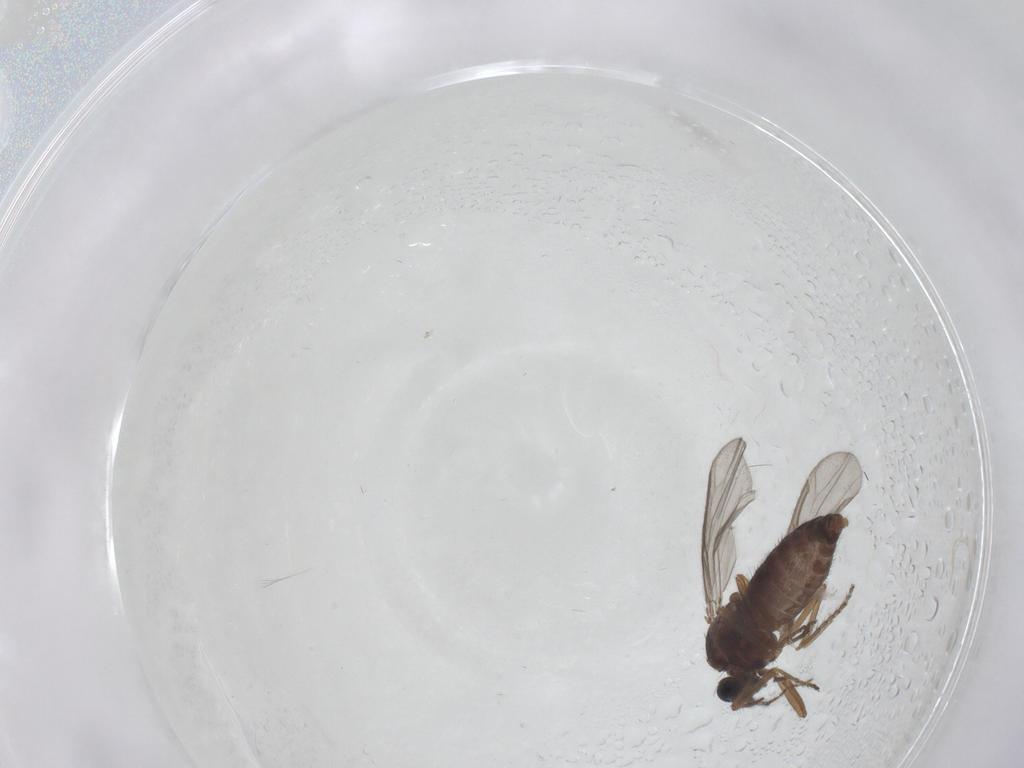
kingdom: Animalia
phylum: Arthropoda
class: Insecta
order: Diptera
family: Ceratopogonidae
